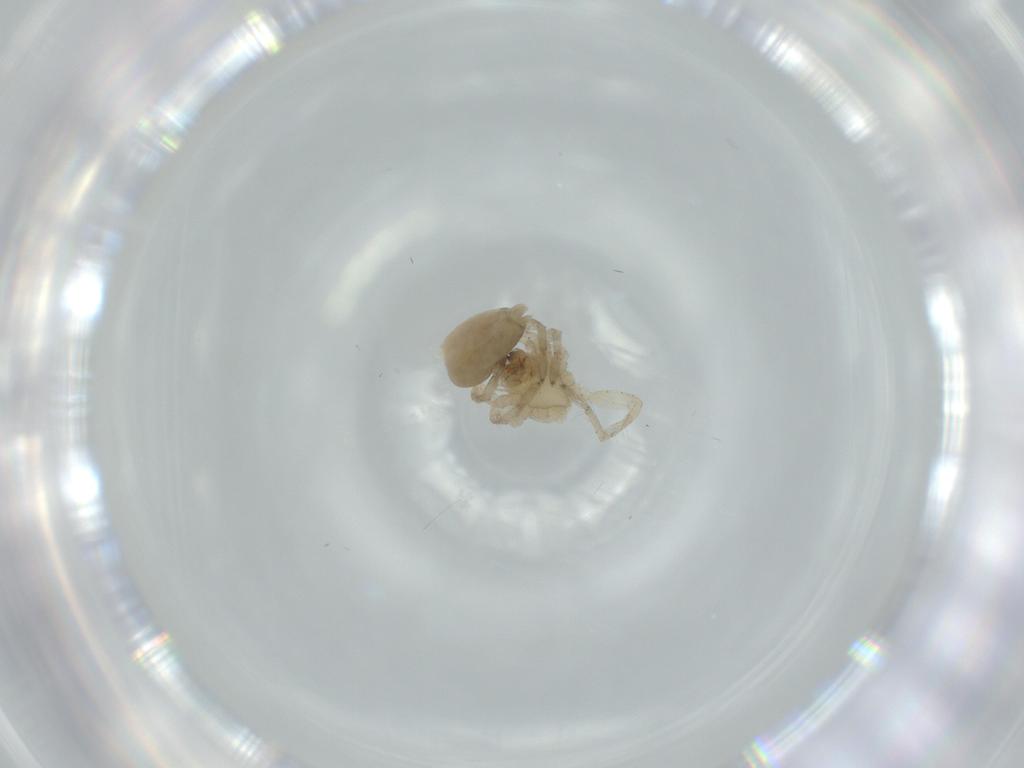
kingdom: Animalia
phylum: Arthropoda
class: Arachnida
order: Araneae
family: Amaurobiidae
